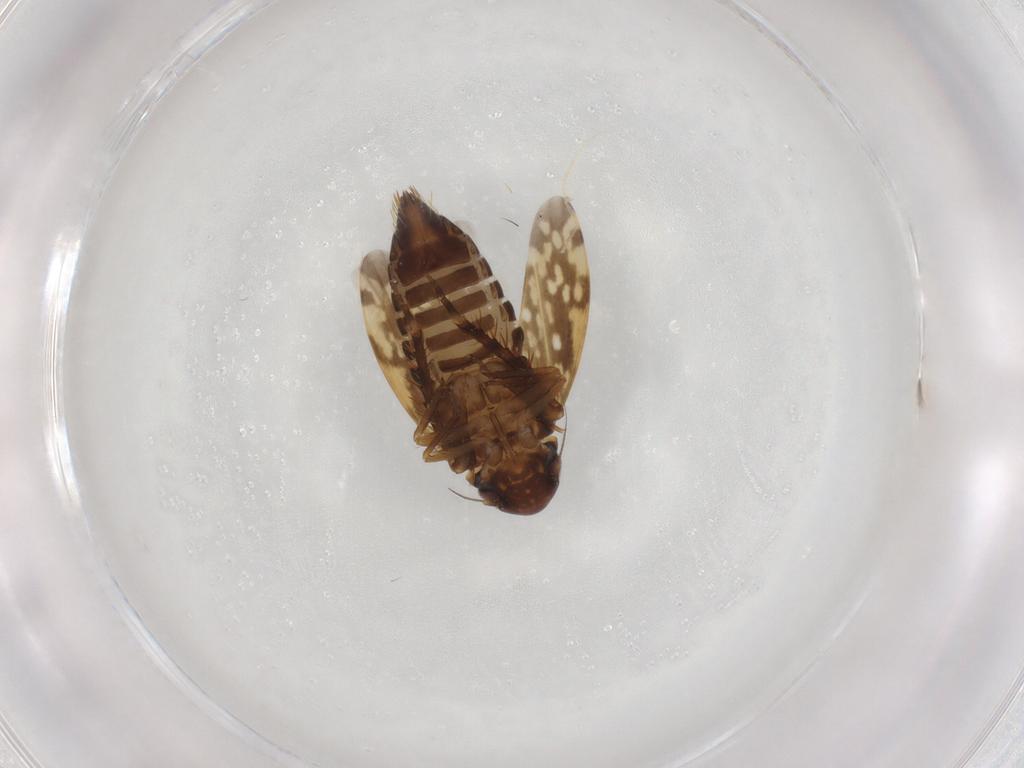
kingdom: Animalia
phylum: Arthropoda
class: Insecta
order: Hemiptera
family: Cicadellidae
